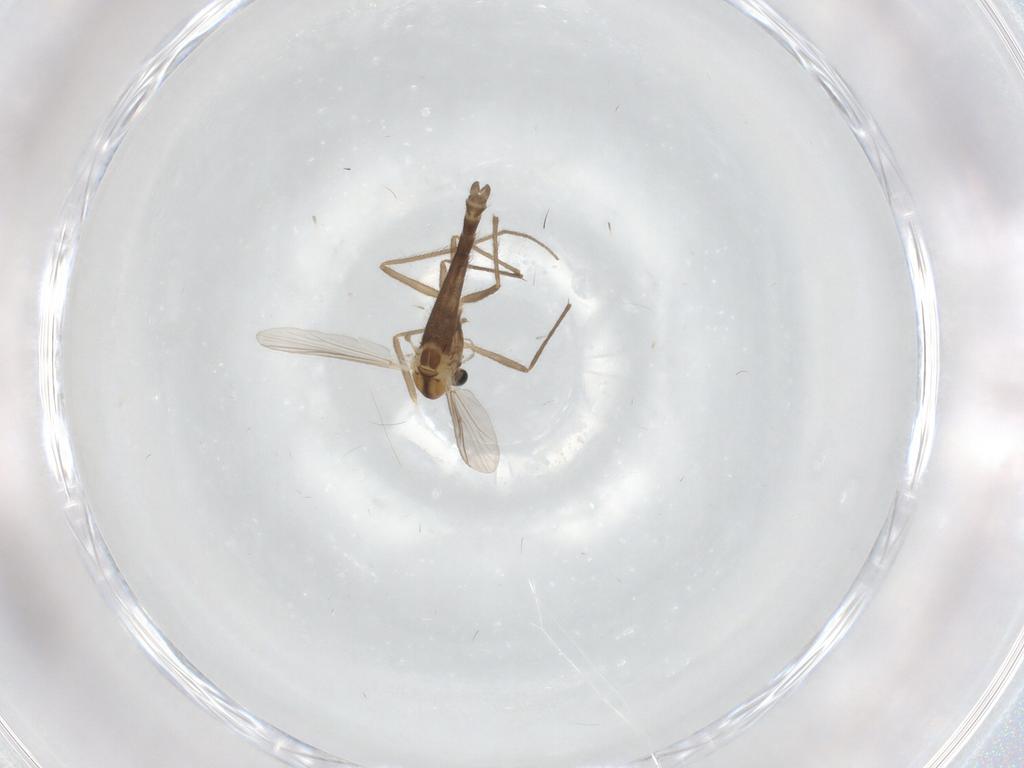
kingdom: Animalia
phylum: Arthropoda
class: Insecta
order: Diptera
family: Chironomidae
